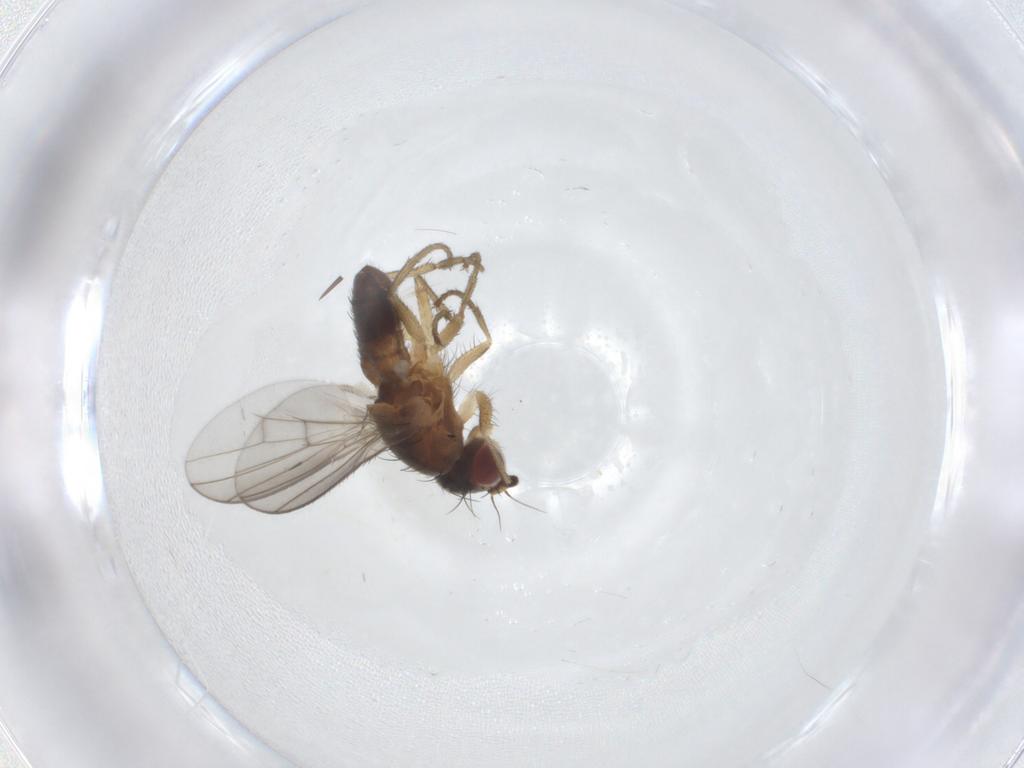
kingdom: Animalia
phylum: Arthropoda
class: Insecta
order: Diptera
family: Heleomyzidae
